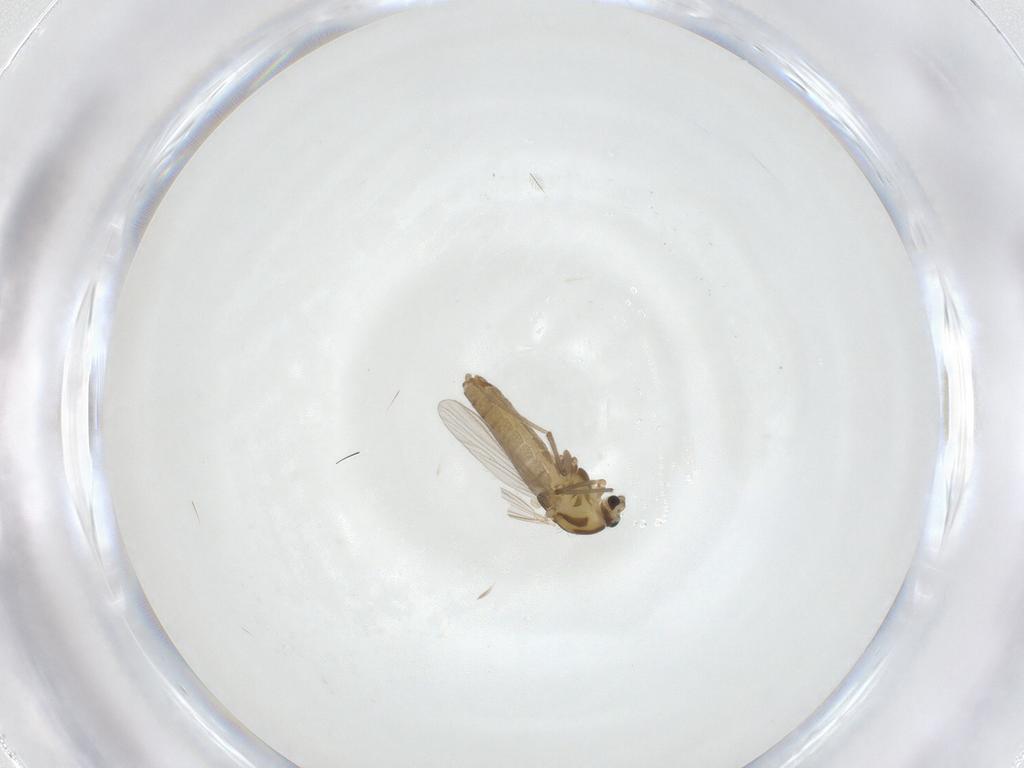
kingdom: Animalia
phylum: Arthropoda
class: Insecta
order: Diptera
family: Chironomidae
